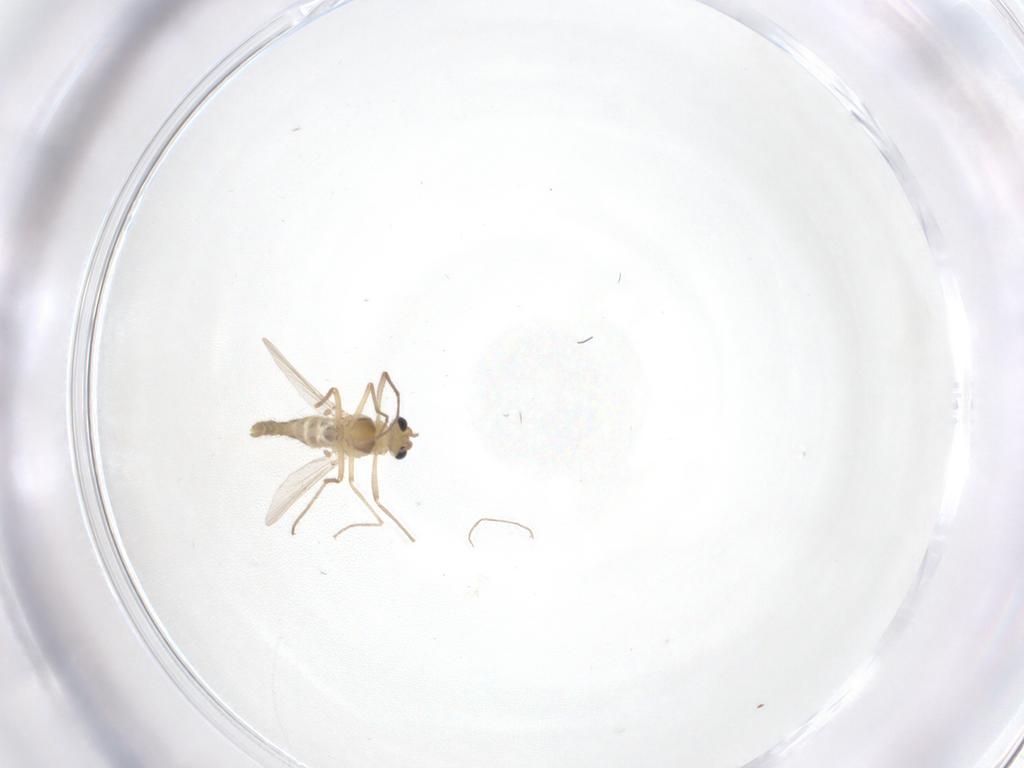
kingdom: Animalia
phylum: Arthropoda
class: Insecta
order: Diptera
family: Chironomidae
